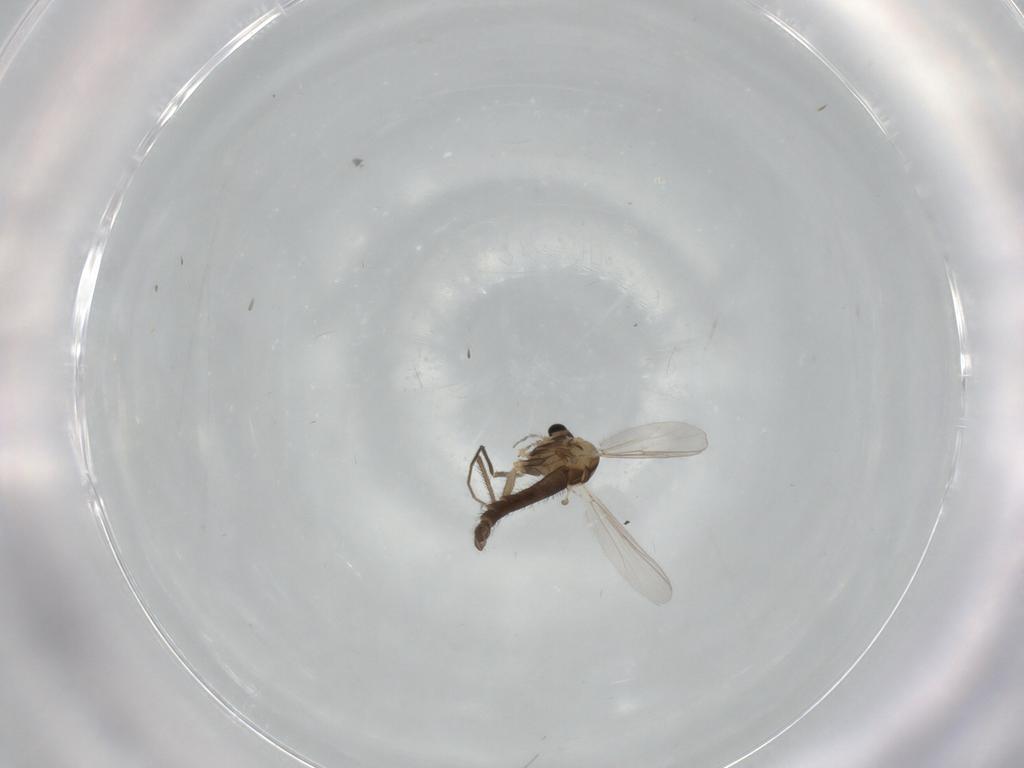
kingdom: Animalia
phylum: Arthropoda
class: Insecta
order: Diptera
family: Chironomidae
